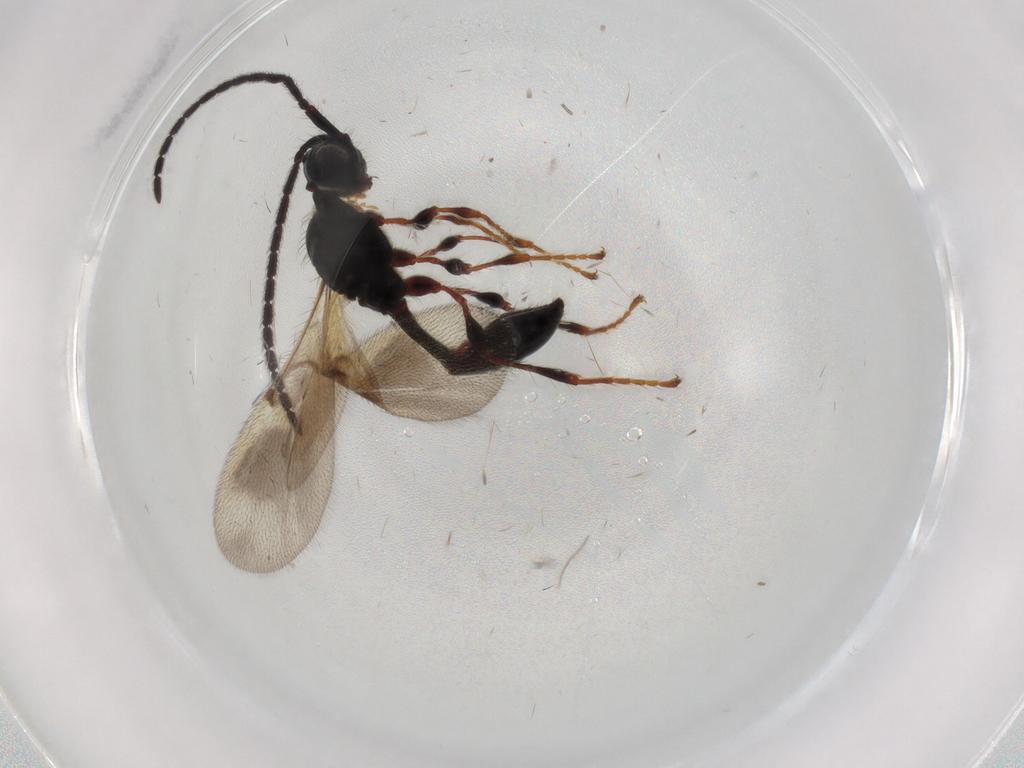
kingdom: Animalia
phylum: Arthropoda
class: Insecta
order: Hymenoptera
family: Diapriidae
